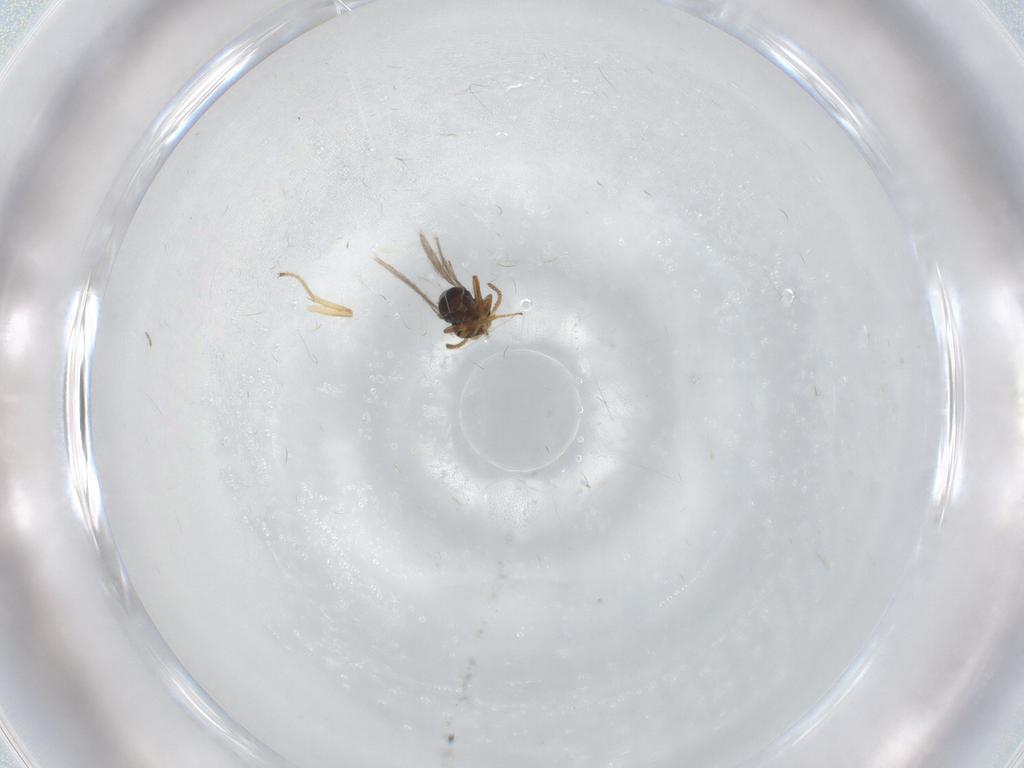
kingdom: Animalia
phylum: Arthropoda
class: Insecta
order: Hymenoptera
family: Scelionidae
